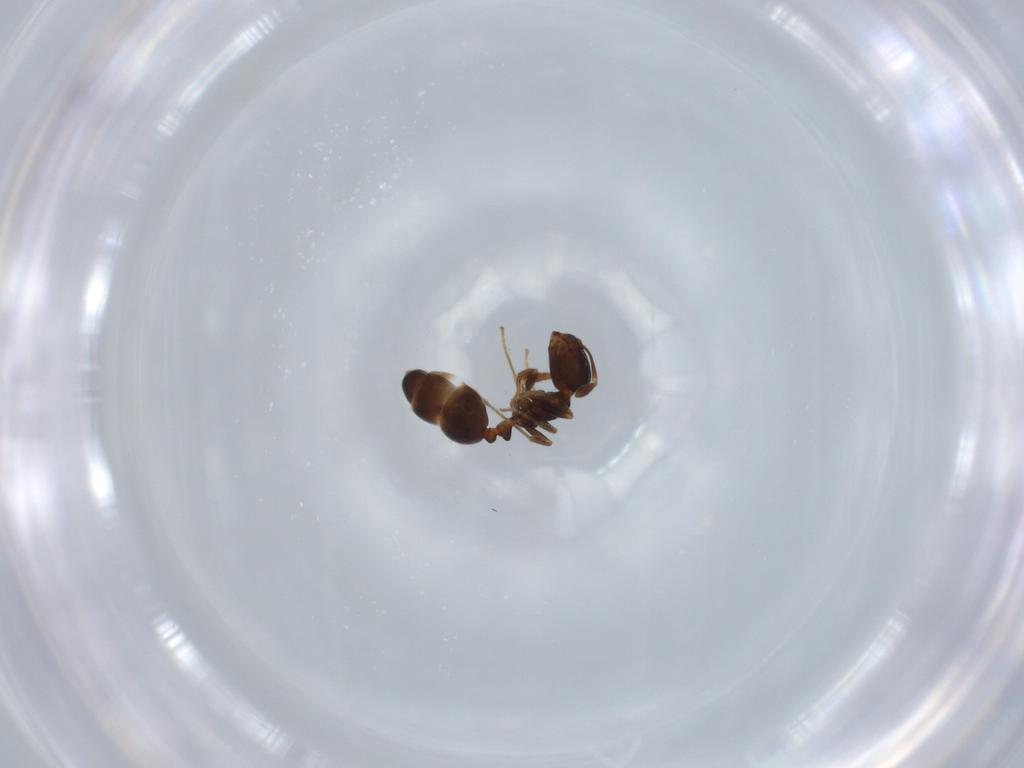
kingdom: Animalia
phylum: Arthropoda
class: Insecta
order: Hymenoptera
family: Formicidae
